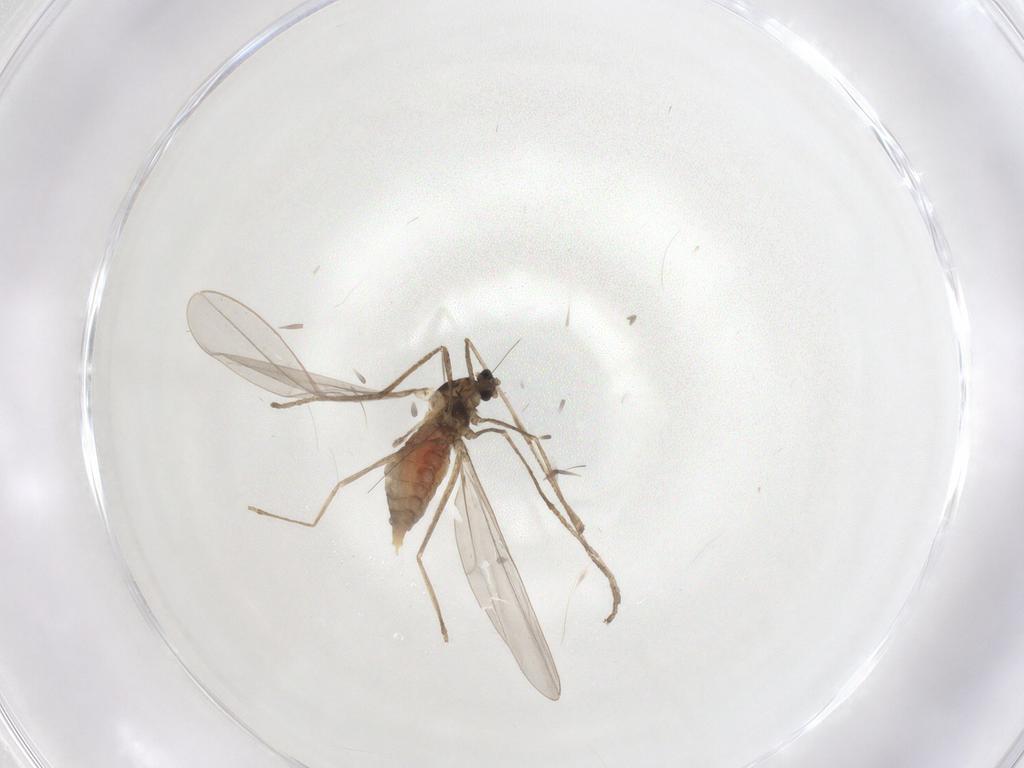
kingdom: Animalia
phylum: Arthropoda
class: Insecta
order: Diptera
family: Cecidomyiidae
